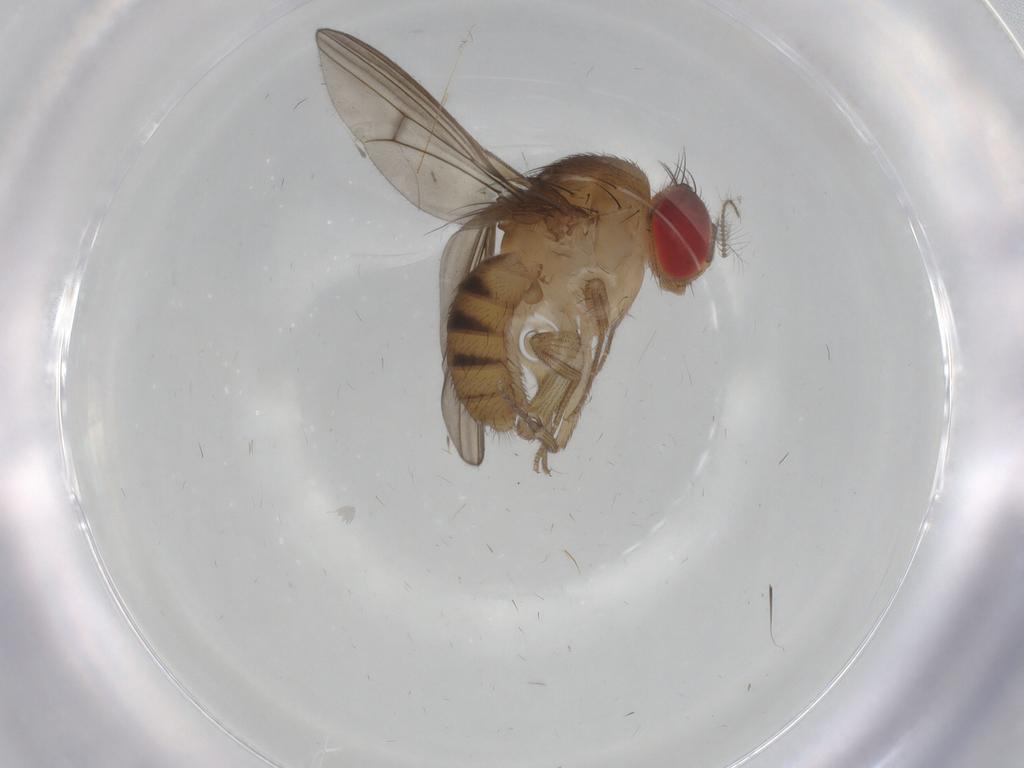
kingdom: Animalia
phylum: Arthropoda
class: Insecta
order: Diptera
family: Drosophilidae
